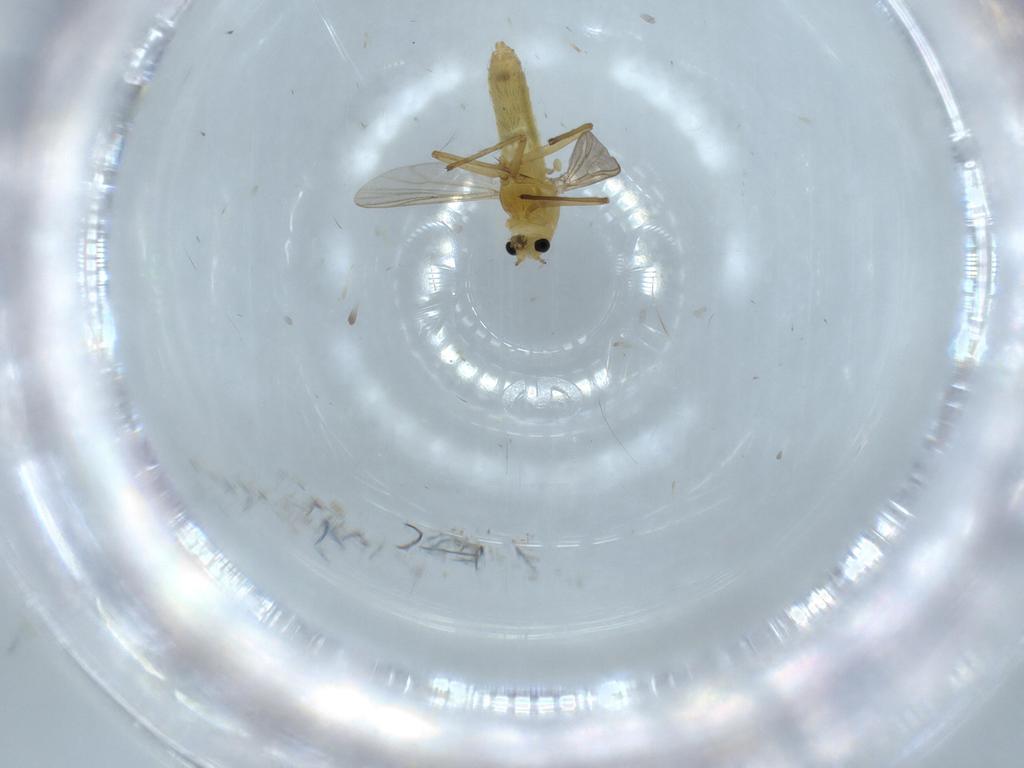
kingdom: Animalia
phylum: Arthropoda
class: Insecta
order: Diptera
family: Chironomidae
